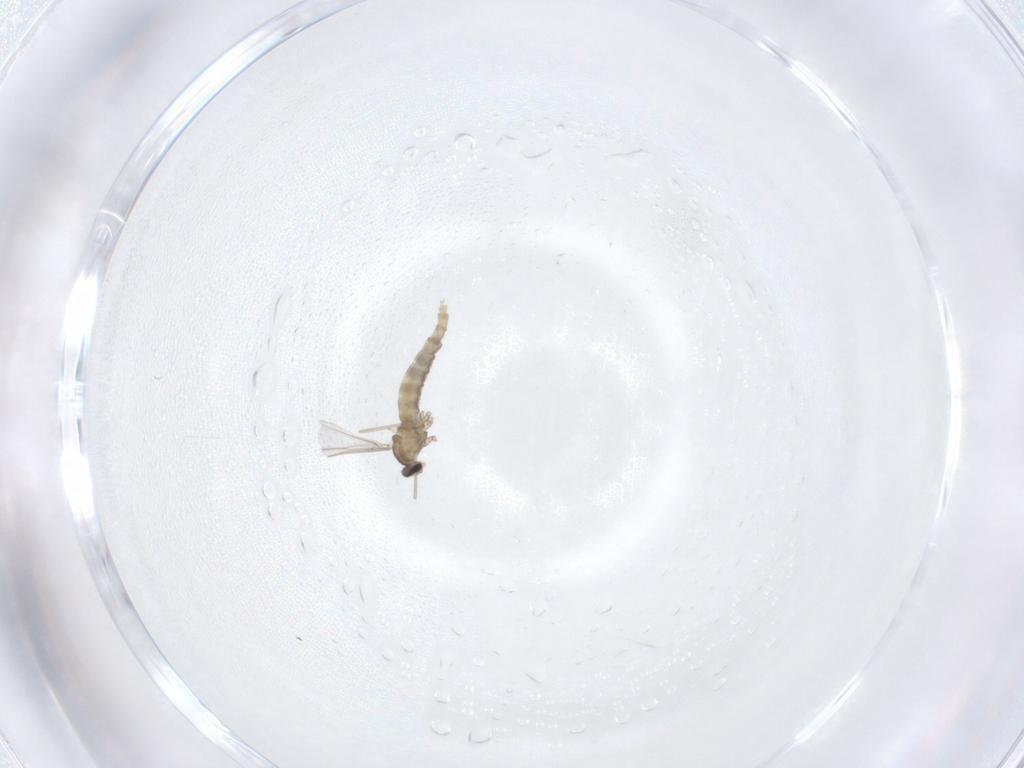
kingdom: Animalia
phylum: Arthropoda
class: Insecta
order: Diptera
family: Cecidomyiidae
